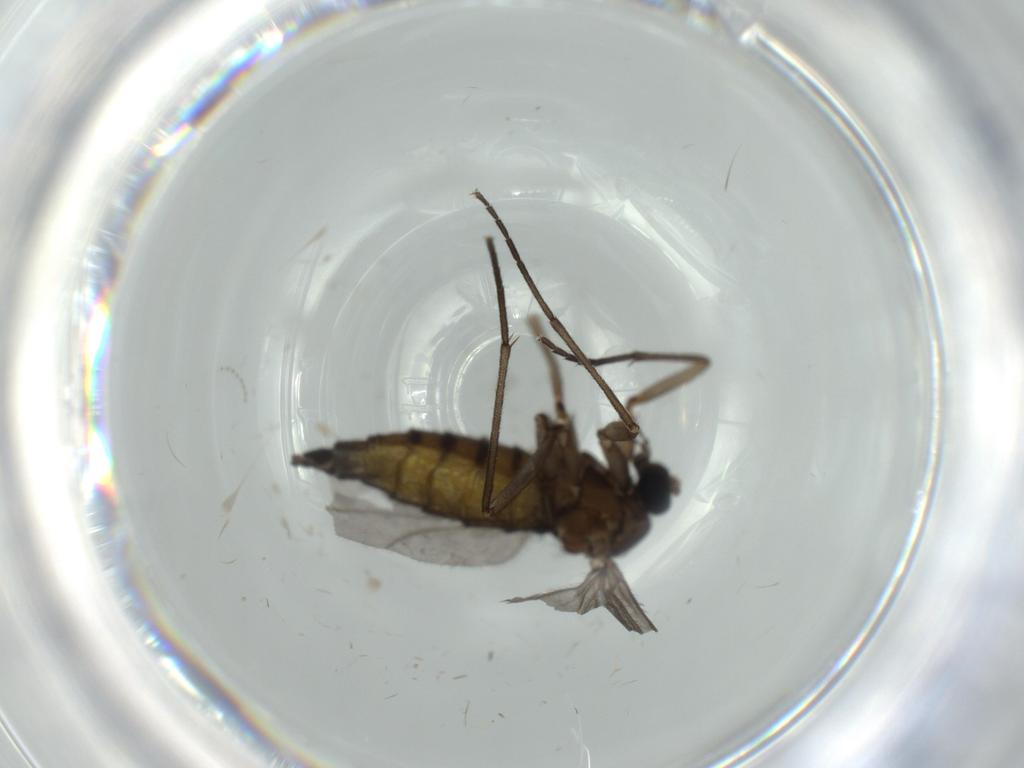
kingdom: Animalia
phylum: Arthropoda
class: Insecta
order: Diptera
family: Sciaridae
